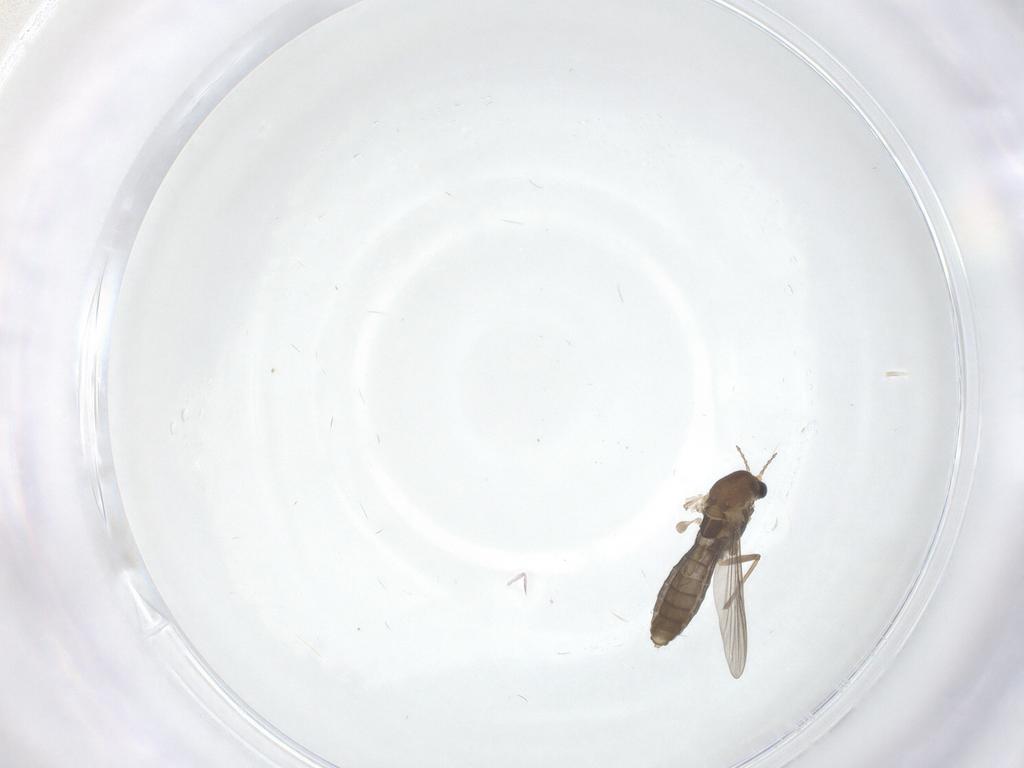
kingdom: Animalia
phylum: Arthropoda
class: Insecta
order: Diptera
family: Chironomidae
